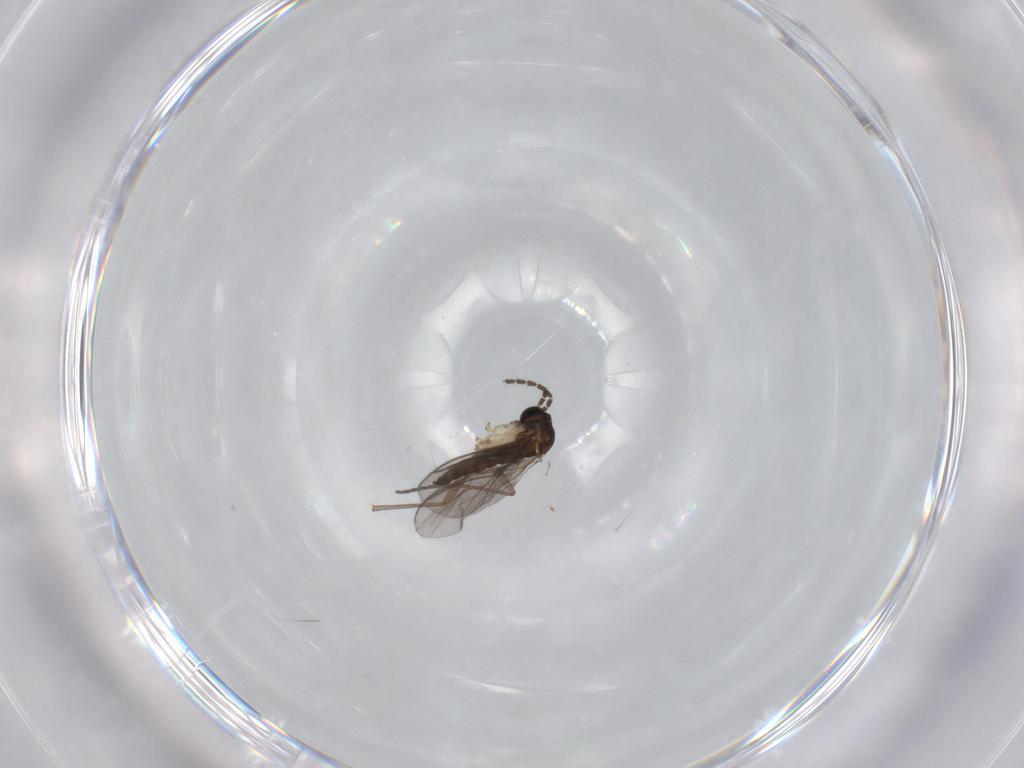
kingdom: Animalia
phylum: Arthropoda
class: Insecta
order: Diptera
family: Sciaridae
